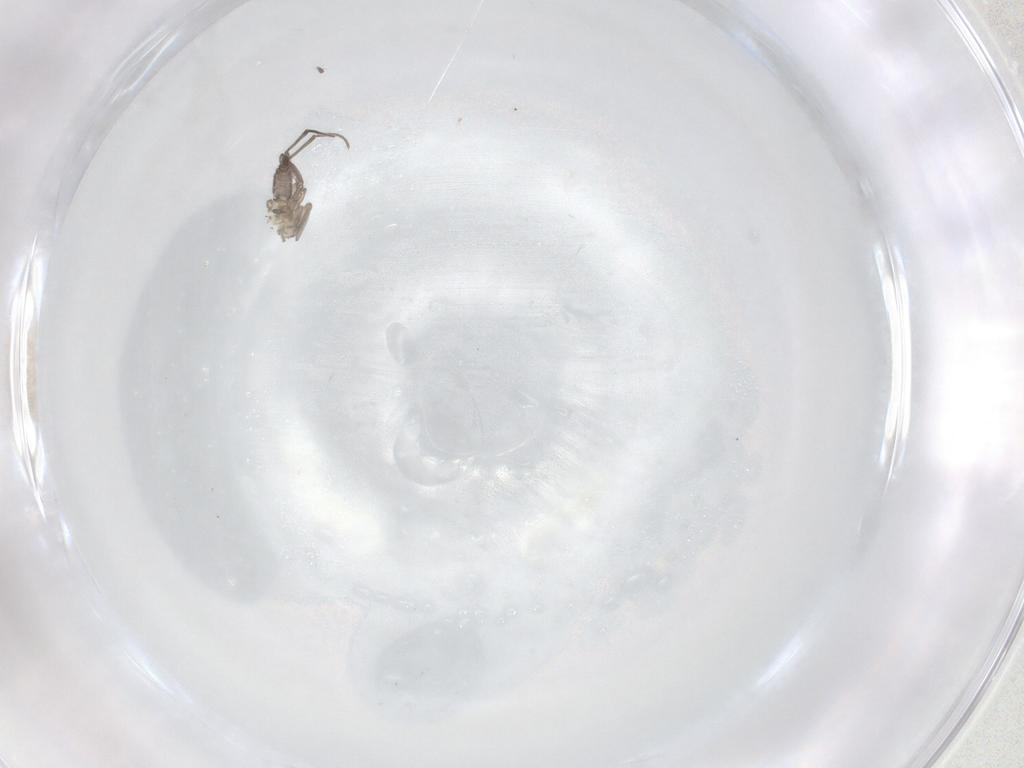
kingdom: Animalia
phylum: Arthropoda
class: Insecta
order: Diptera
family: Sciaridae
